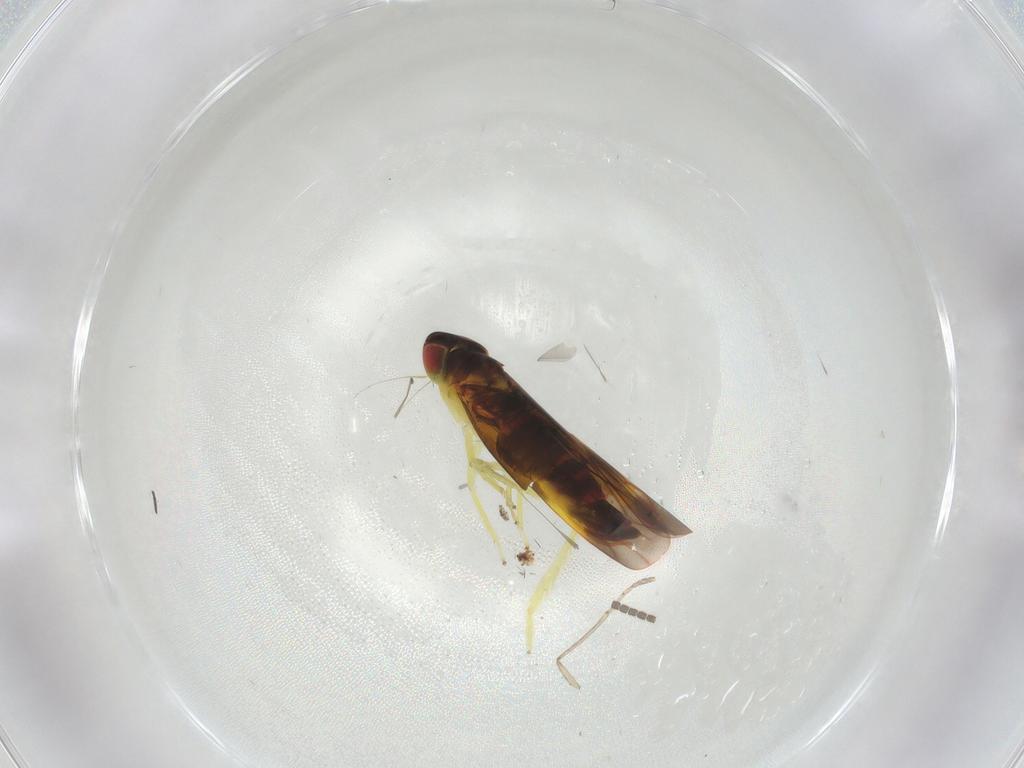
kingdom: Animalia
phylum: Arthropoda
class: Insecta
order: Hemiptera
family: Cicadellidae
